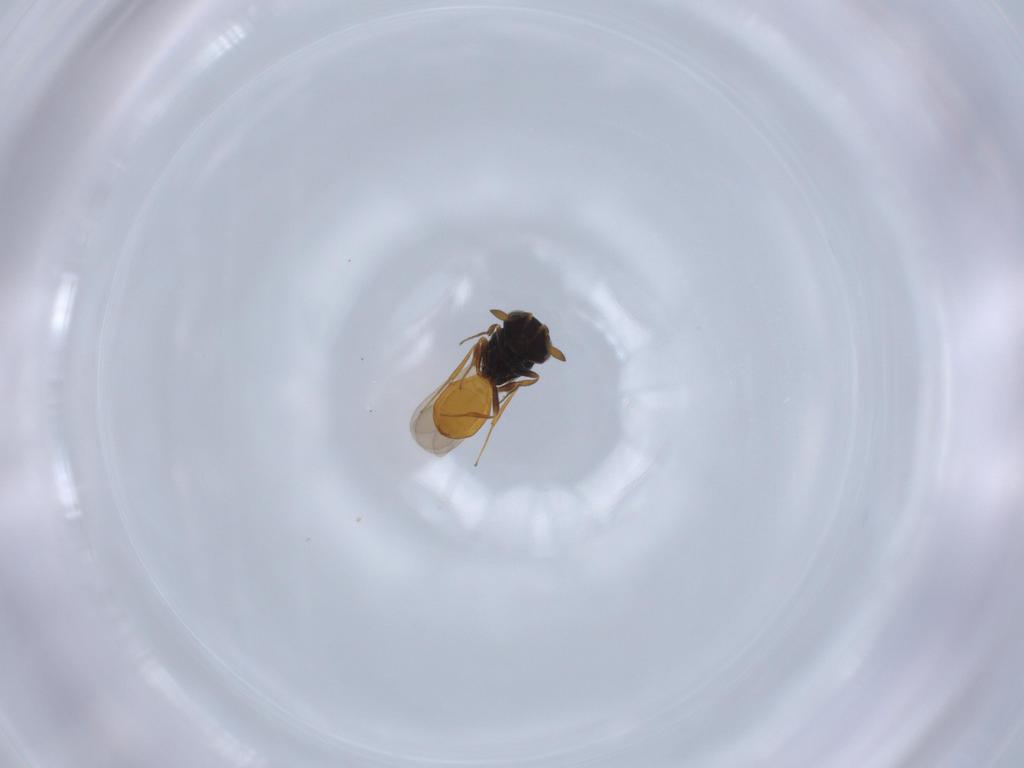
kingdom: Animalia
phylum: Arthropoda
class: Insecta
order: Hymenoptera
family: Scelionidae
